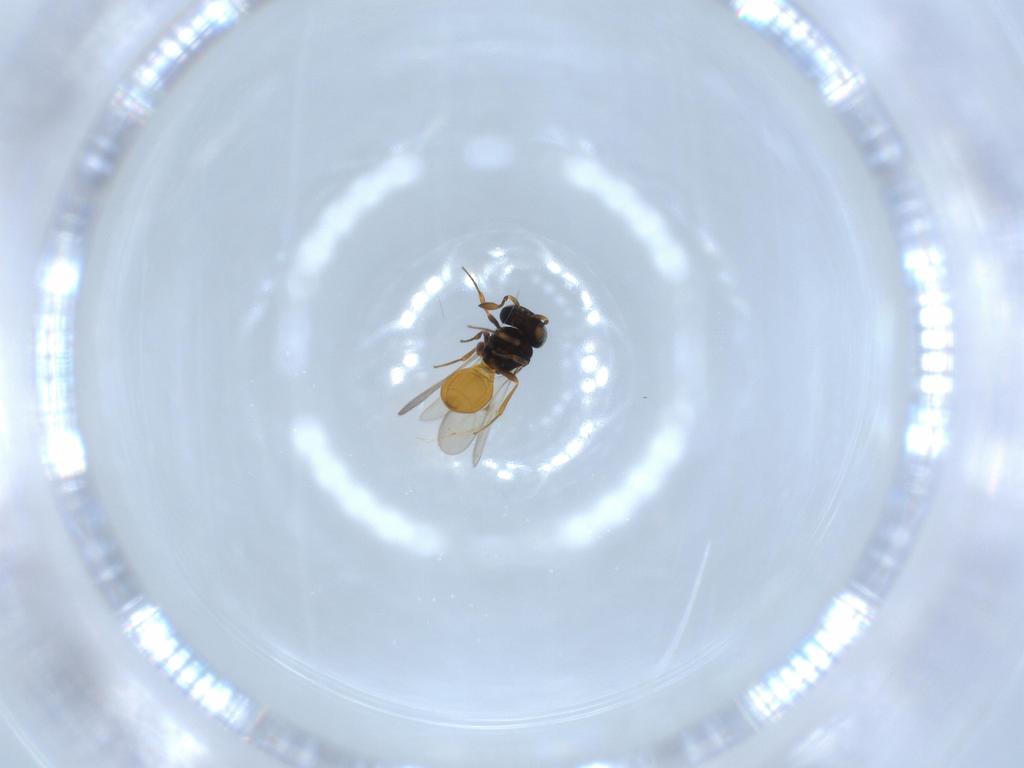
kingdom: Animalia
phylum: Arthropoda
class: Insecta
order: Hymenoptera
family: Scelionidae
